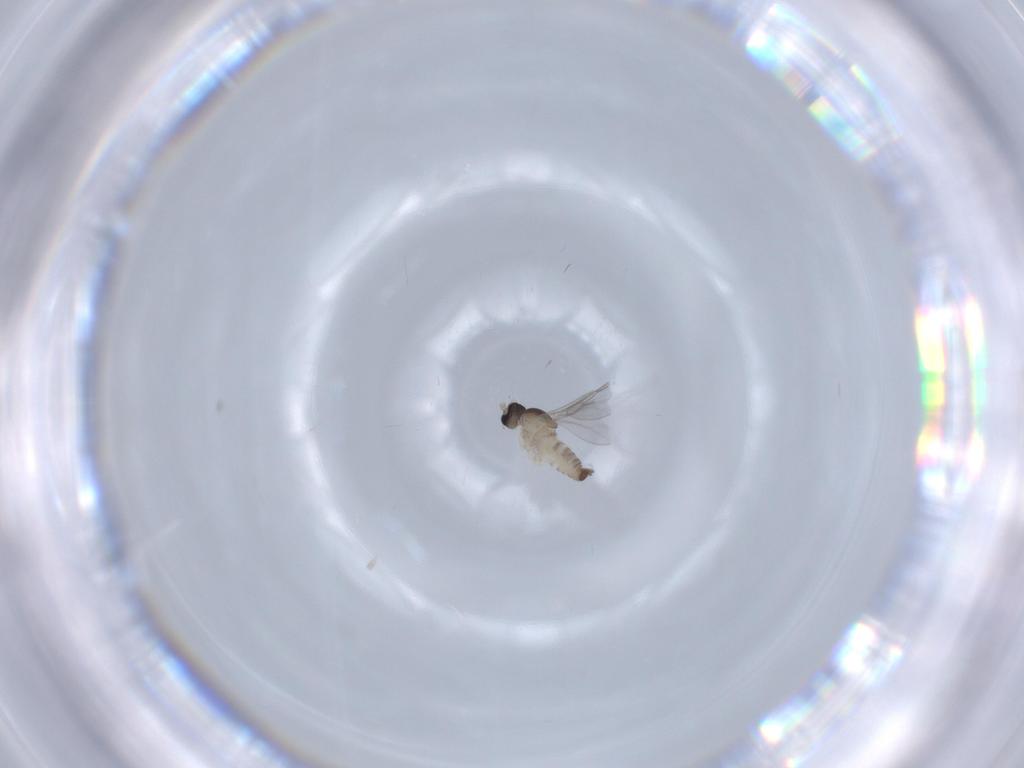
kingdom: Animalia
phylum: Arthropoda
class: Insecta
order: Diptera
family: Cecidomyiidae
